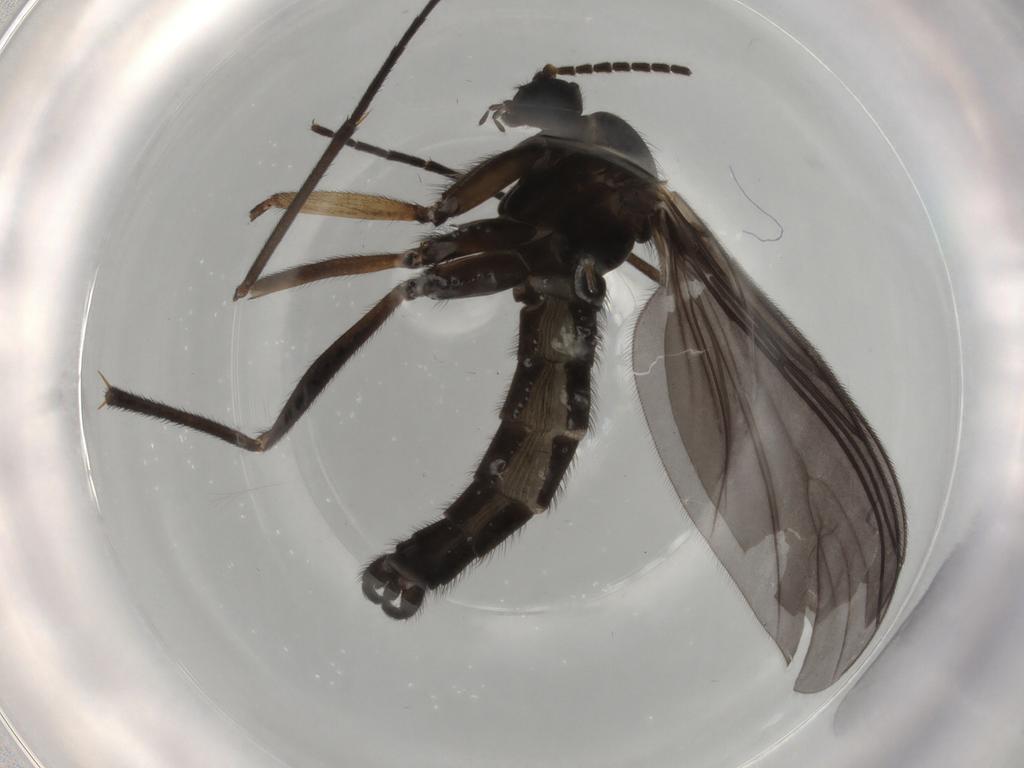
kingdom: Animalia
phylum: Arthropoda
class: Insecta
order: Diptera
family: Sciaridae
